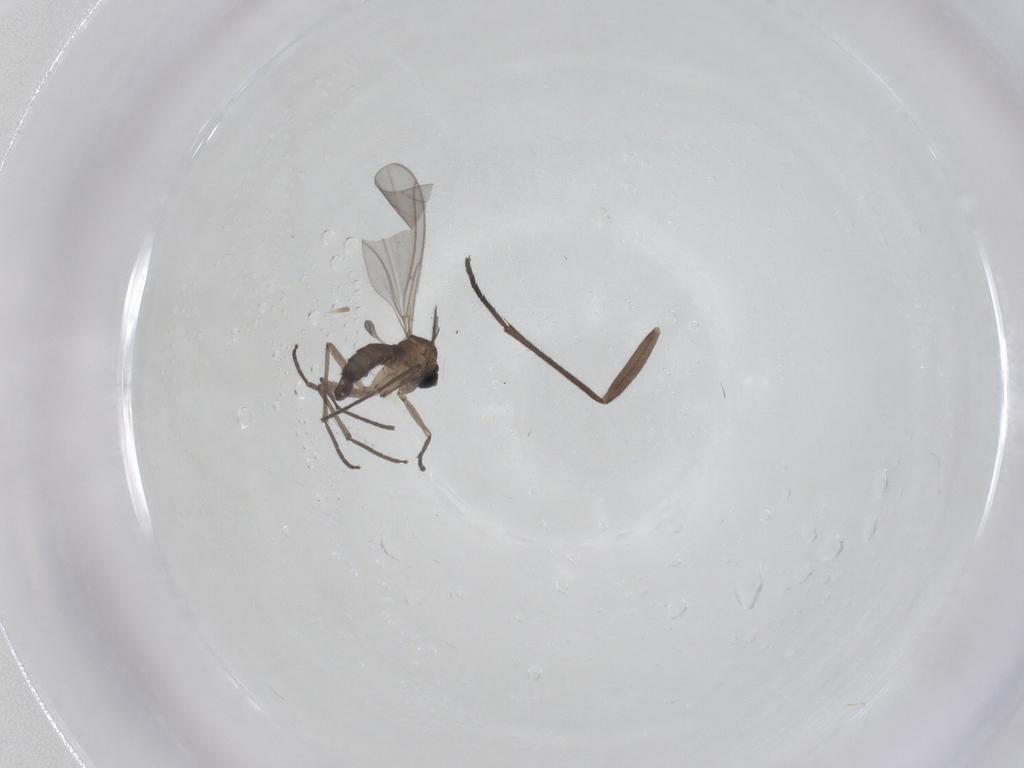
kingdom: Animalia
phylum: Arthropoda
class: Insecta
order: Diptera
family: Sciaridae
